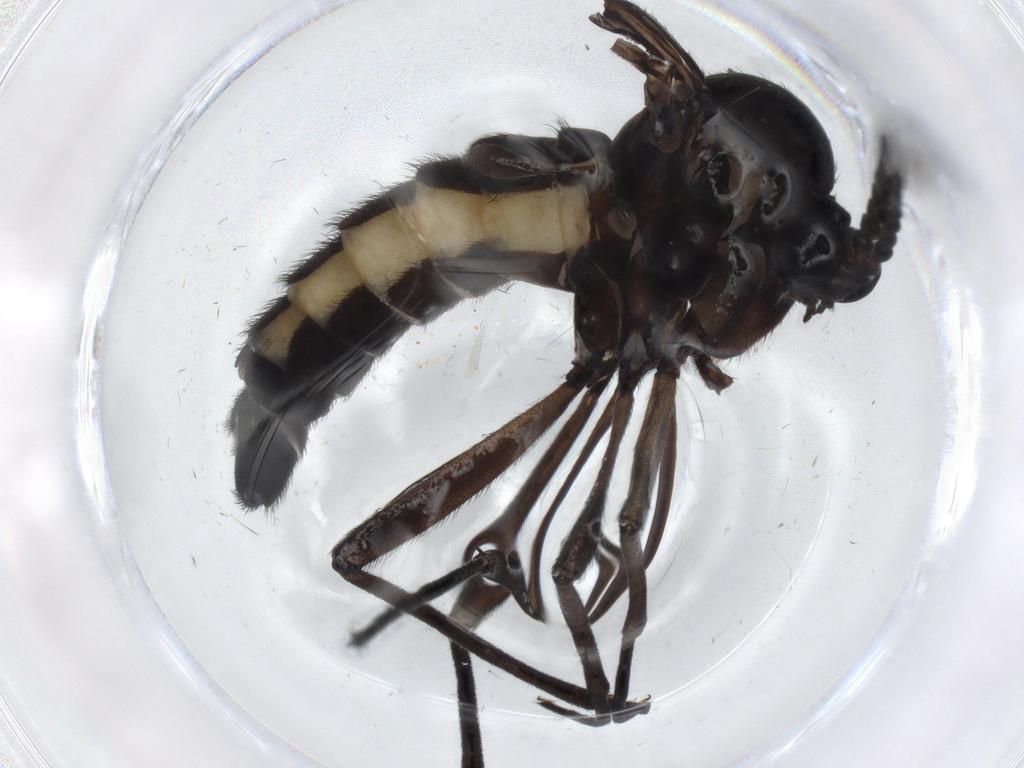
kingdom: Animalia
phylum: Arthropoda
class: Insecta
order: Diptera
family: Sciaridae
